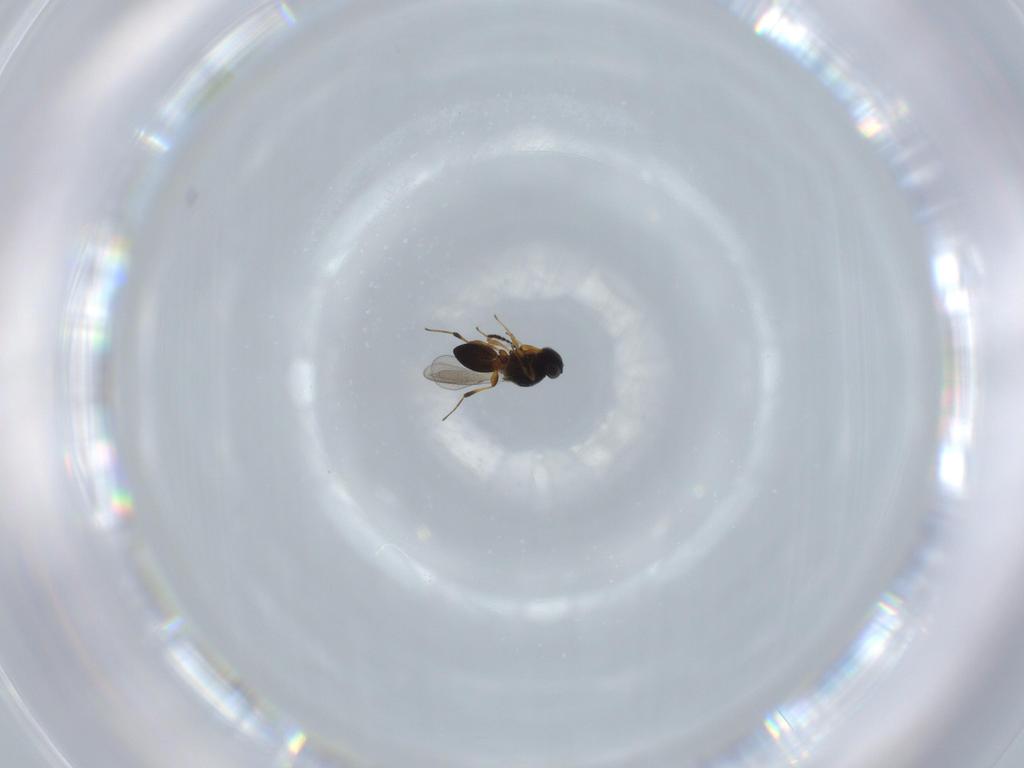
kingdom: Animalia
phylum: Arthropoda
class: Insecta
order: Hymenoptera
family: Platygastridae
